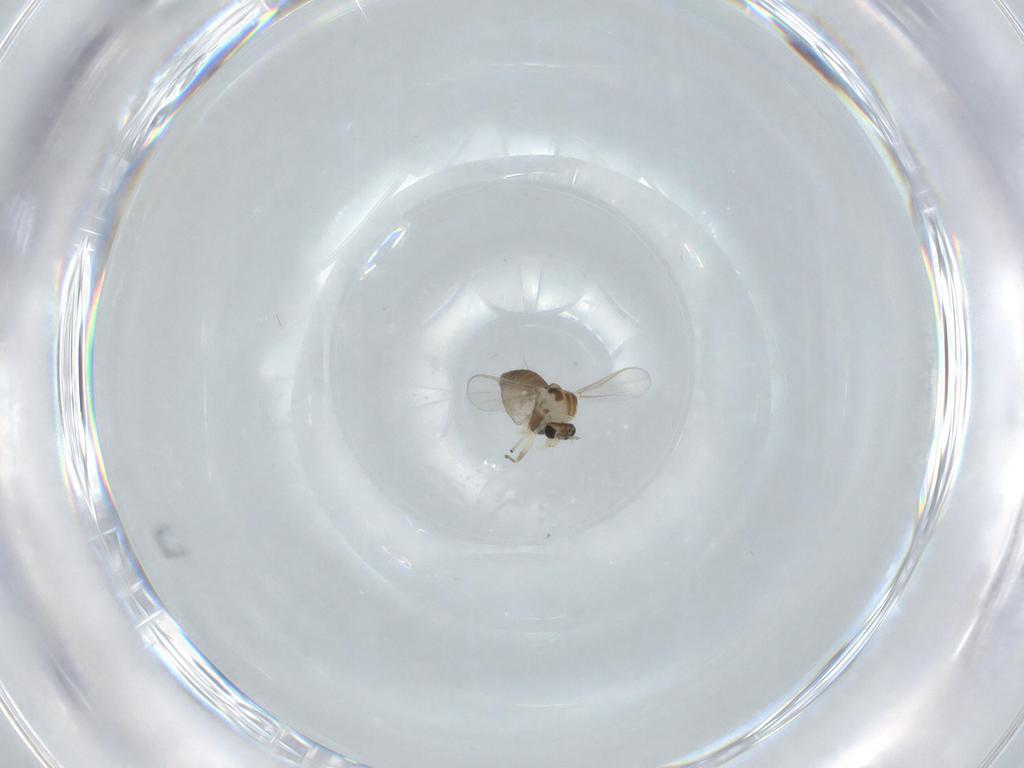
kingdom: Animalia
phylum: Arthropoda
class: Insecta
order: Diptera
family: Chironomidae
